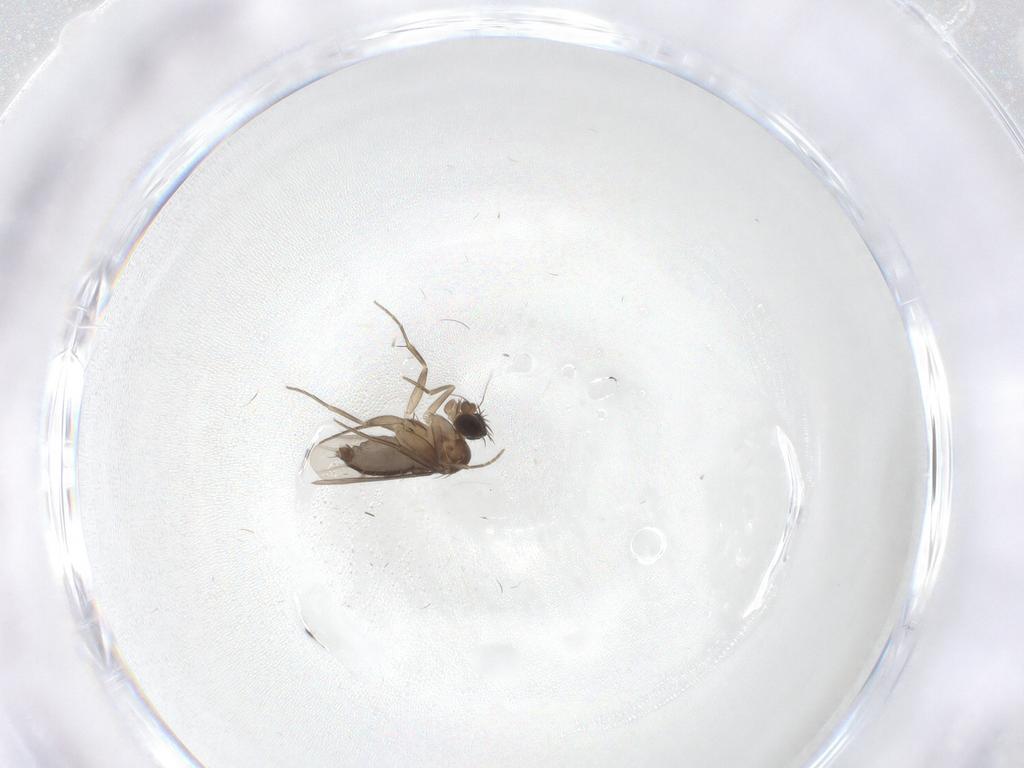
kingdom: Animalia
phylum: Arthropoda
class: Insecta
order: Diptera
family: Phoridae
